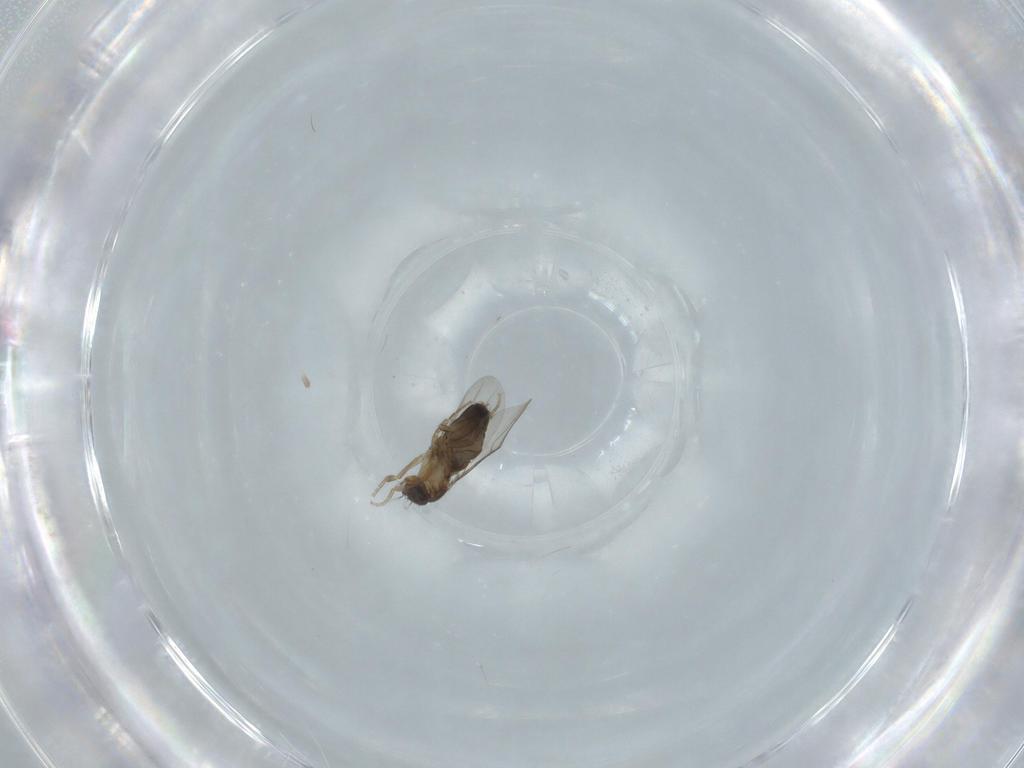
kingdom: Animalia
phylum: Arthropoda
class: Insecta
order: Diptera
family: Phoridae
